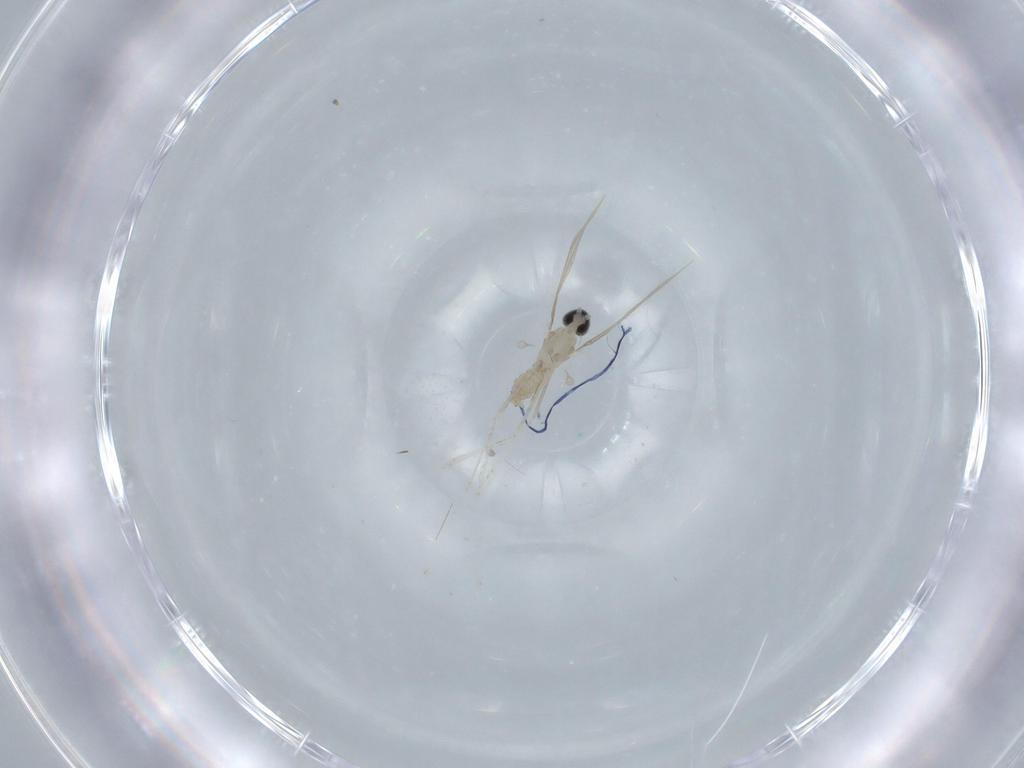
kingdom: Animalia
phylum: Arthropoda
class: Insecta
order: Diptera
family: Cecidomyiidae
